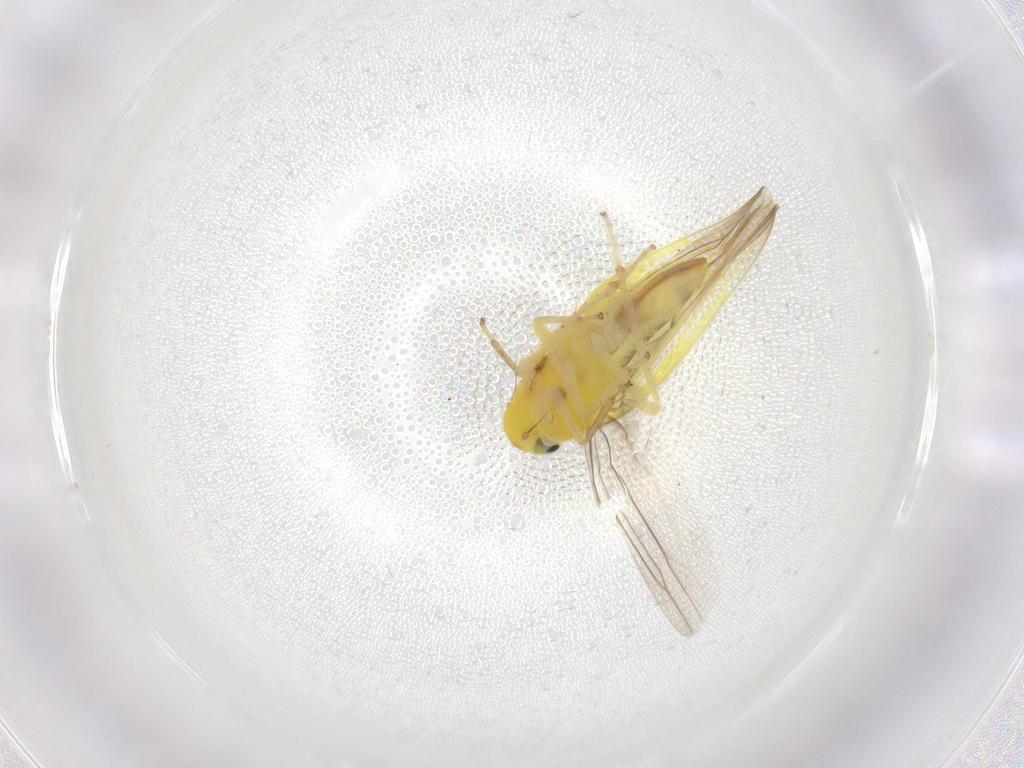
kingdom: Animalia
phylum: Arthropoda
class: Insecta
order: Hemiptera
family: Cicadellidae
